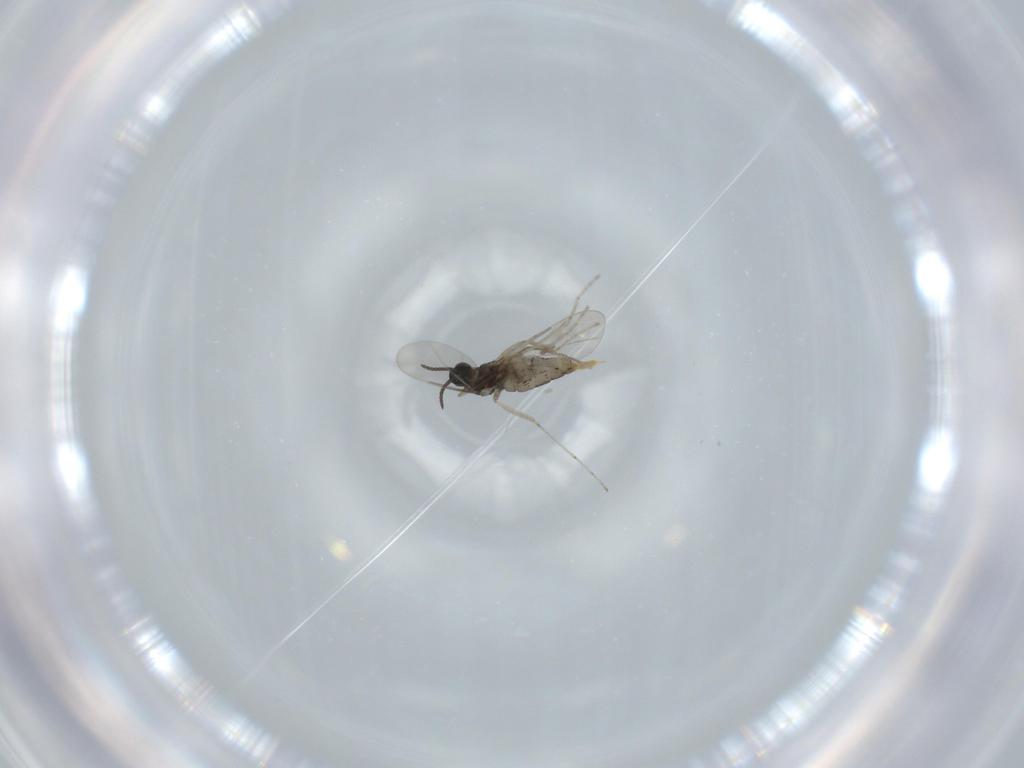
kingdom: Animalia
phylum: Arthropoda
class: Insecta
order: Diptera
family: Cecidomyiidae
